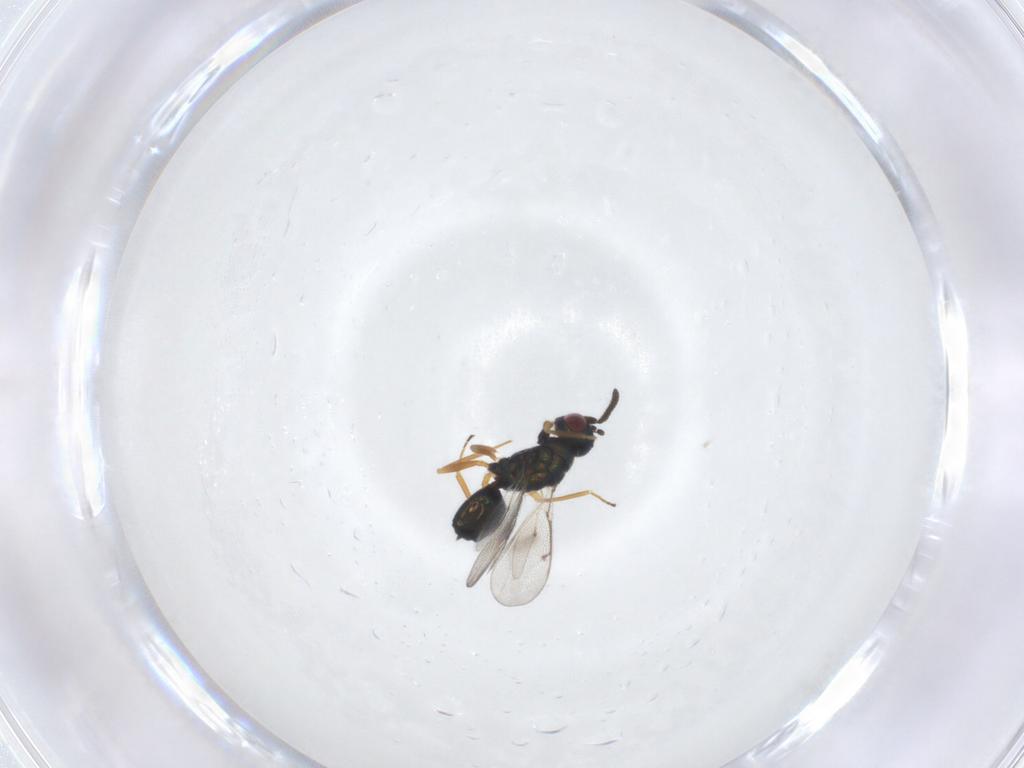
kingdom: Animalia
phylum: Arthropoda
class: Insecta
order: Hymenoptera
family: Tetracampidae
